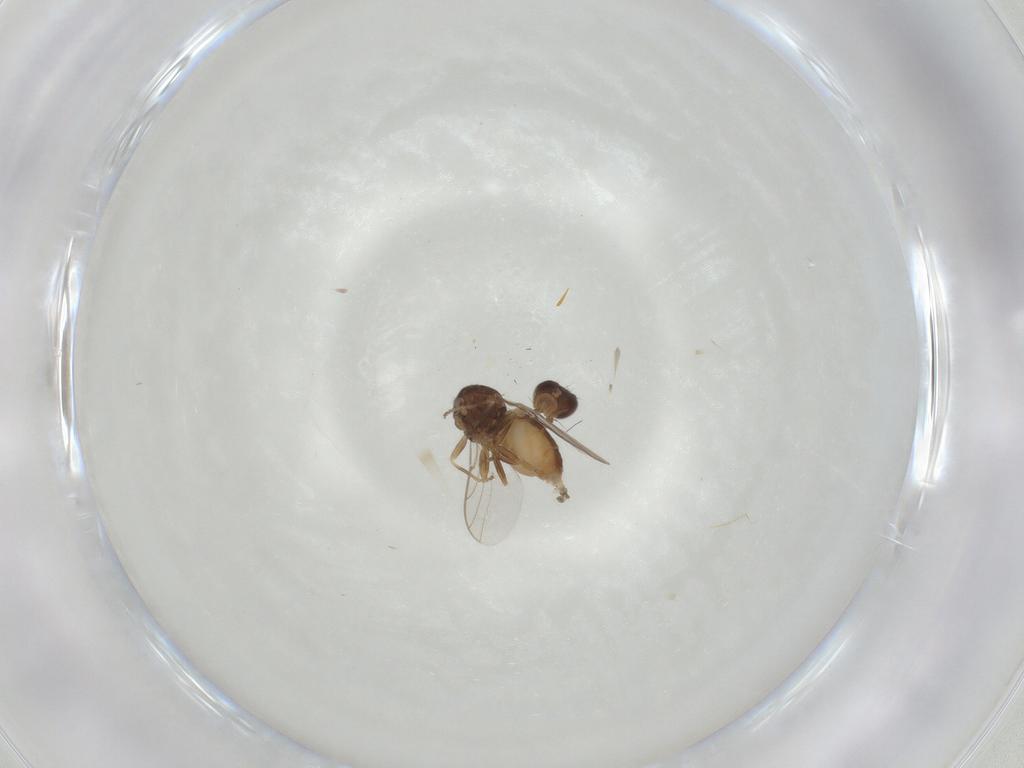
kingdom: Animalia
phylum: Arthropoda
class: Insecta
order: Diptera
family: Chloropidae
